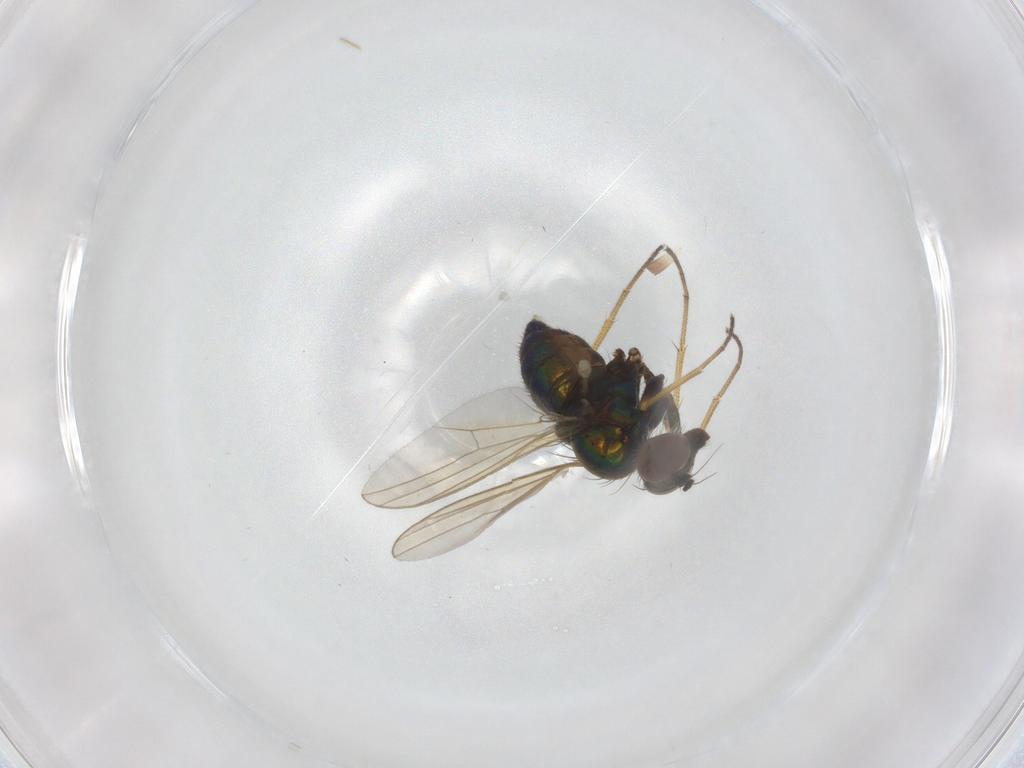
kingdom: Animalia
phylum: Arthropoda
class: Insecta
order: Diptera
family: Dolichopodidae
